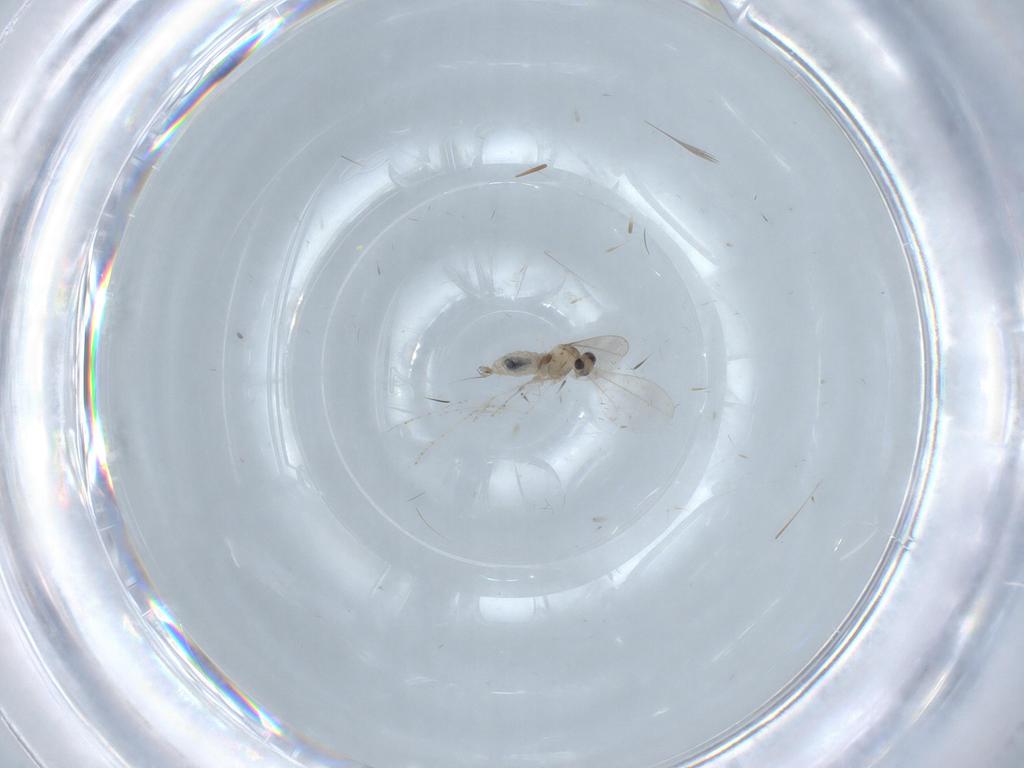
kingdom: Animalia
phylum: Arthropoda
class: Insecta
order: Diptera
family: Cecidomyiidae
